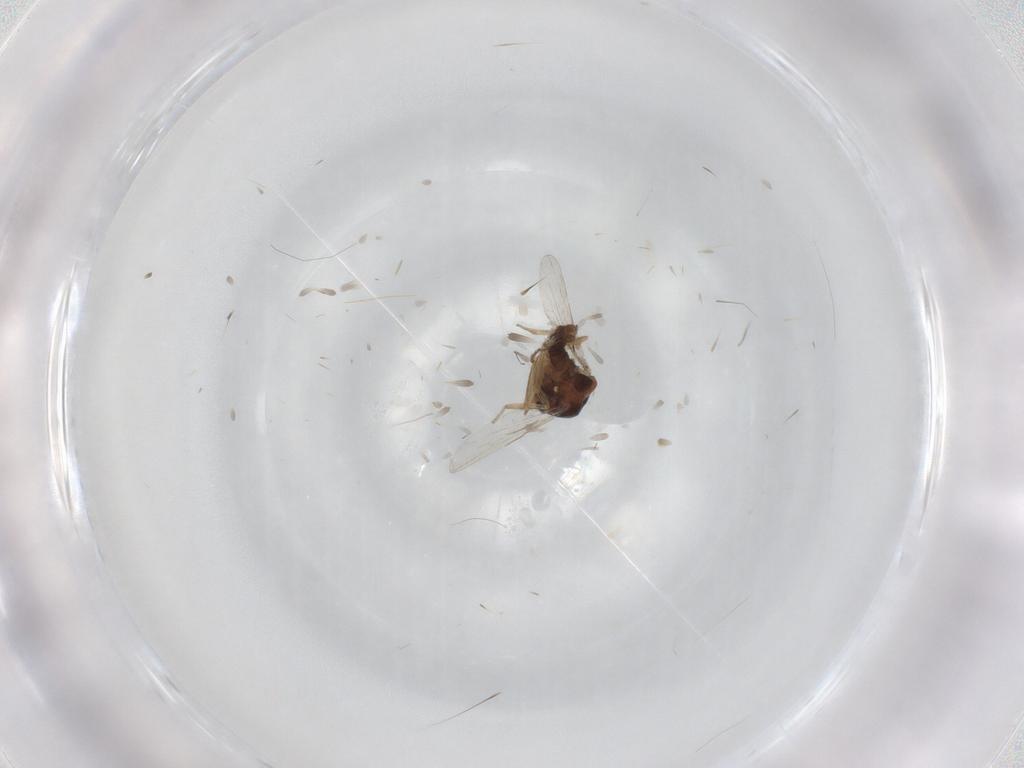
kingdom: Animalia
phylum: Arthropoda
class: Insecta
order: Diptera
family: Ceratopogonidae
